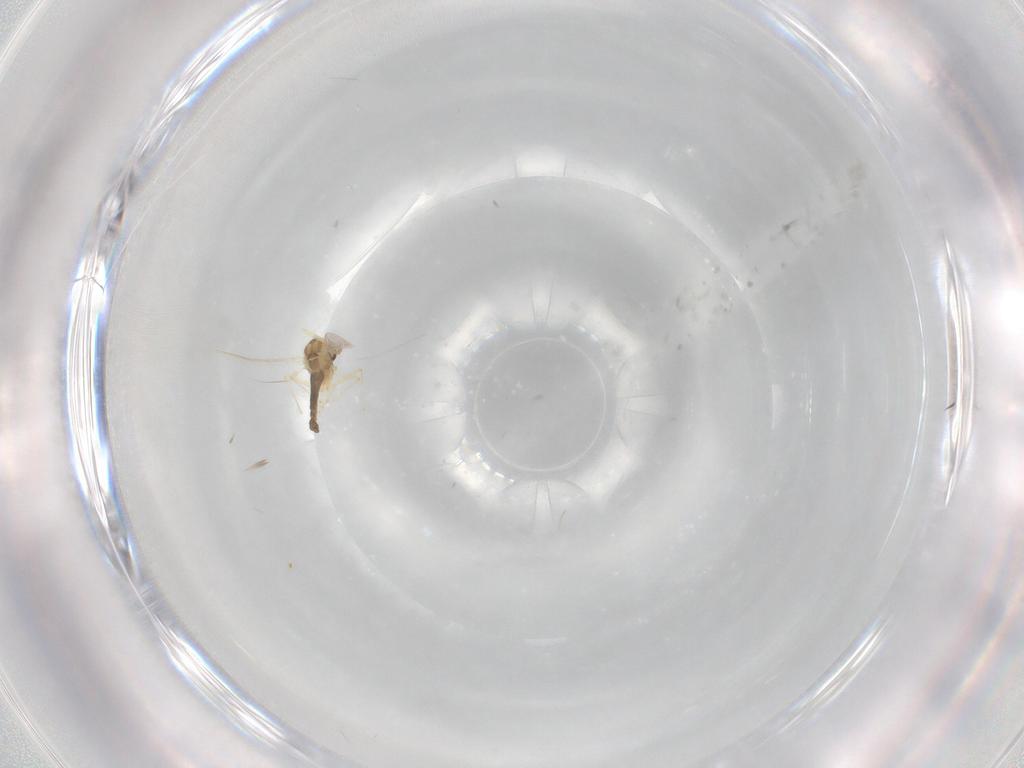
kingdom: Animalia
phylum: Arthropoda
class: Insecta
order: Diptera
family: Chironomidae
